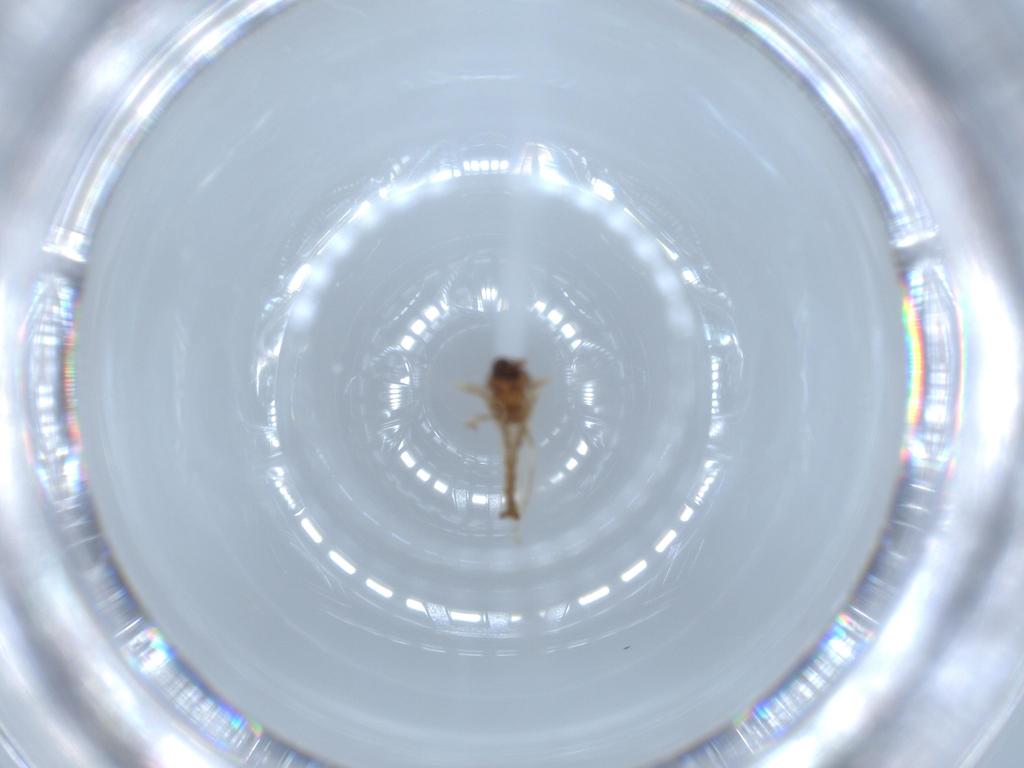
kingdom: Animalia
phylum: Arthropoda
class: Insecta
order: Diptera
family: Ceratopogonidae
